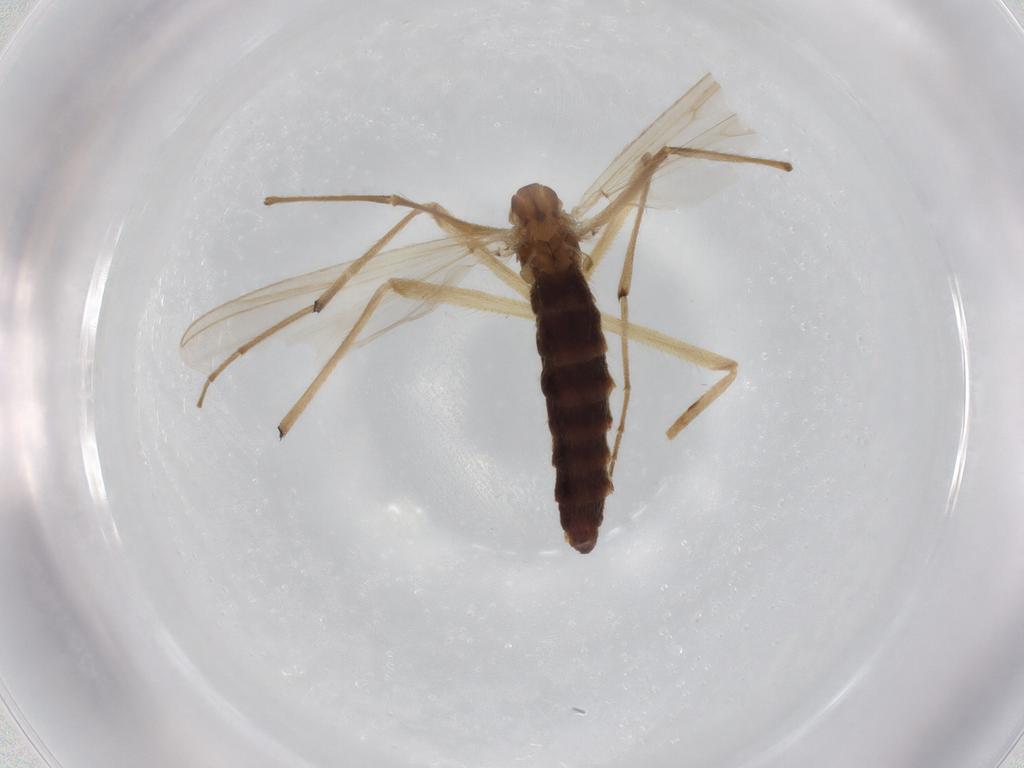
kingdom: Animalia
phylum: Arthropoda
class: Insecta
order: Diptera
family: Chironomidae
